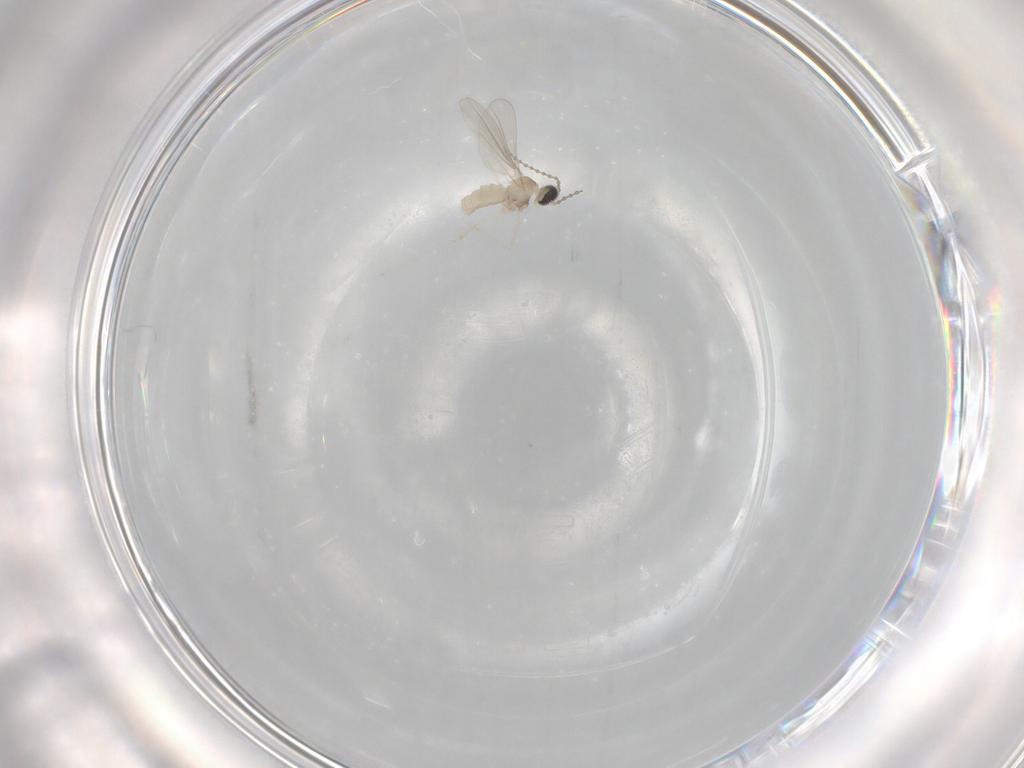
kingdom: Animalia
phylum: Arthropoda
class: Insecta
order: Diptera
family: Cecidomyiidae
